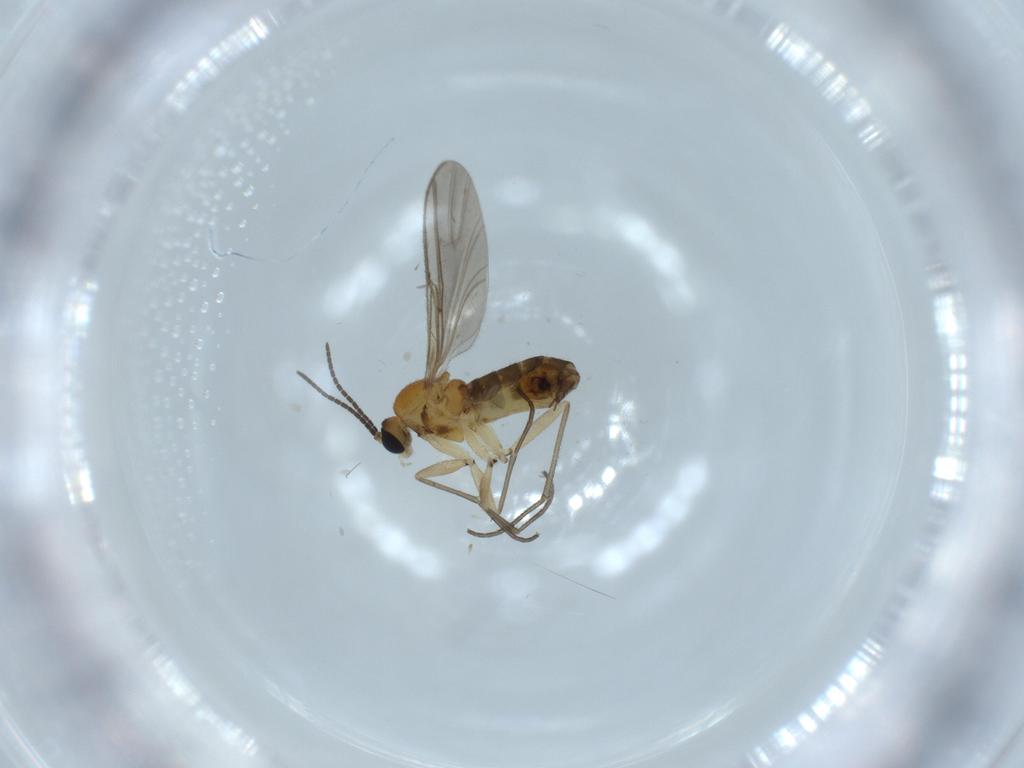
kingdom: Animalia
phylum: Arthropoda
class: Insecta
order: Diptera
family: Sciaridae
